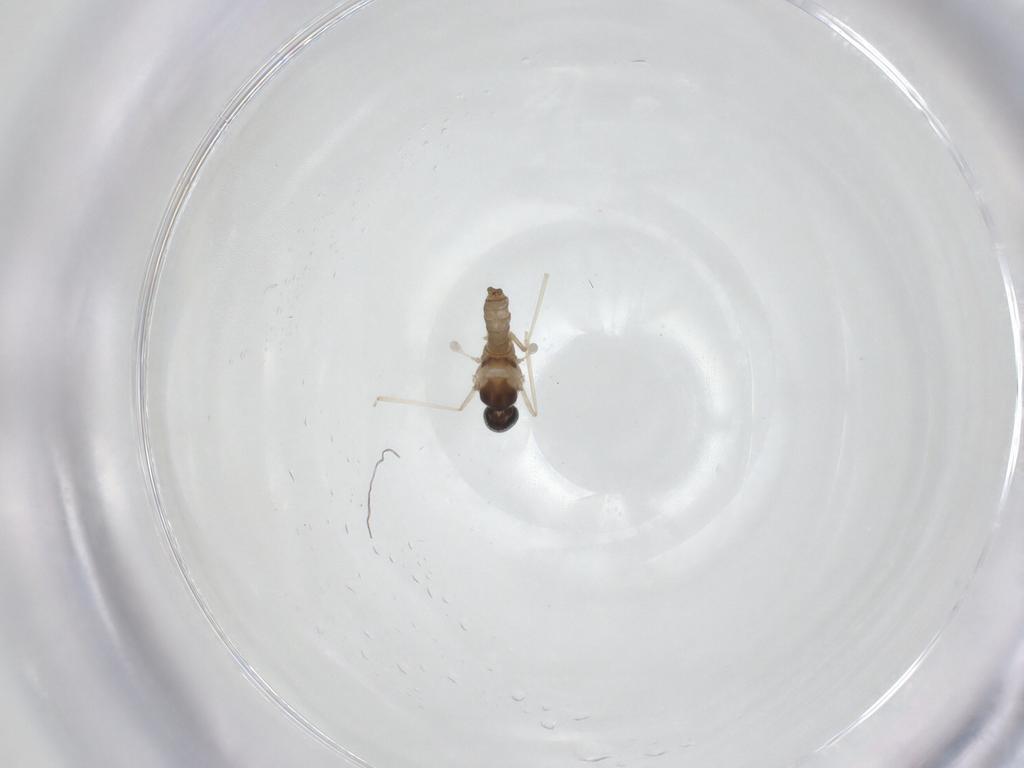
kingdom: Animalia
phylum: Arthropoda
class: Insecta
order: Diptera
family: Cecidomyiidae
